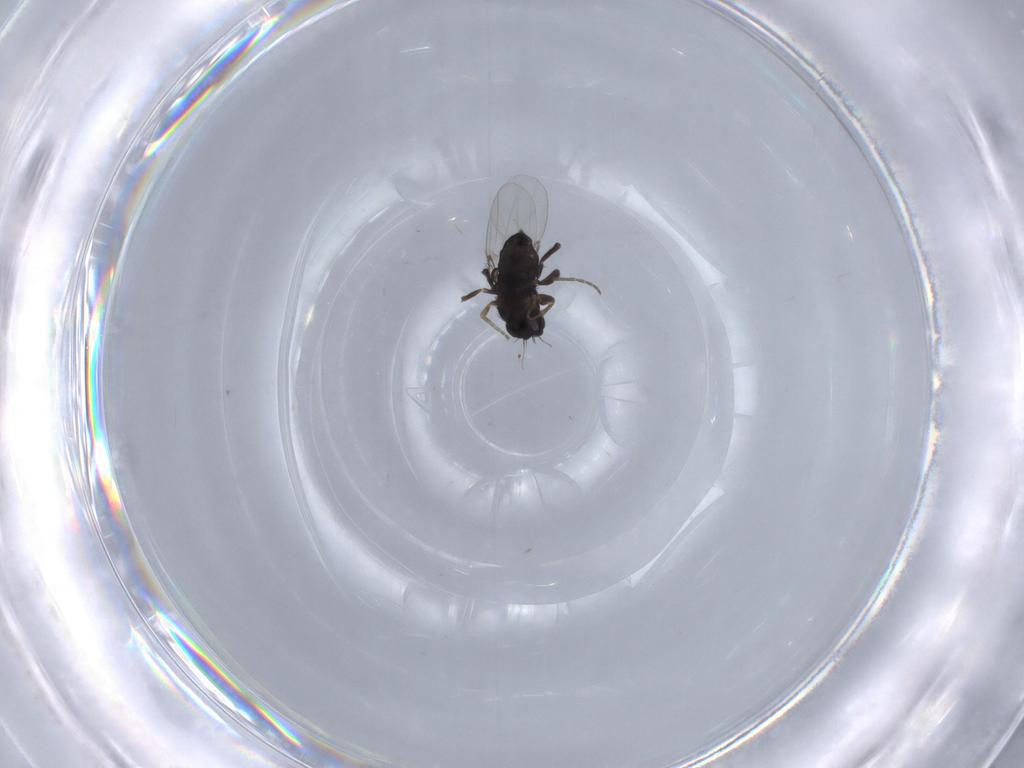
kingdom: Animalia
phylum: Arthropoda
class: Insecta
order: Diptera
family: Phoridae
